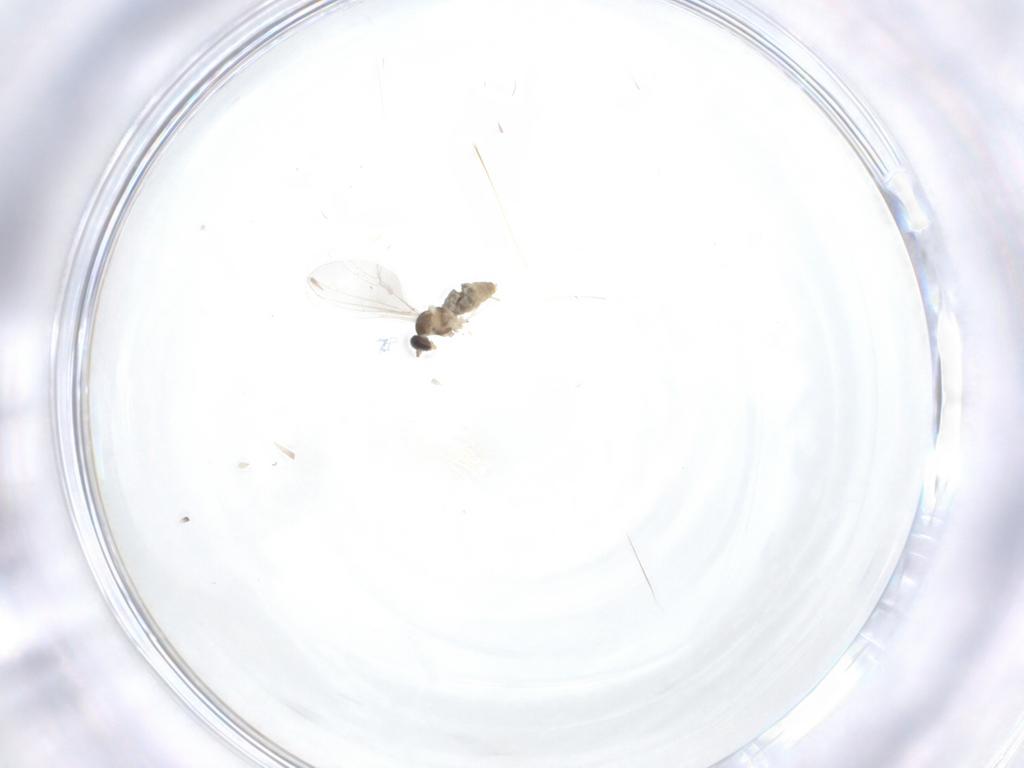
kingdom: Animalia
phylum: Arthropoda
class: Insecta
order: Diptera
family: Cecidomyiidae
